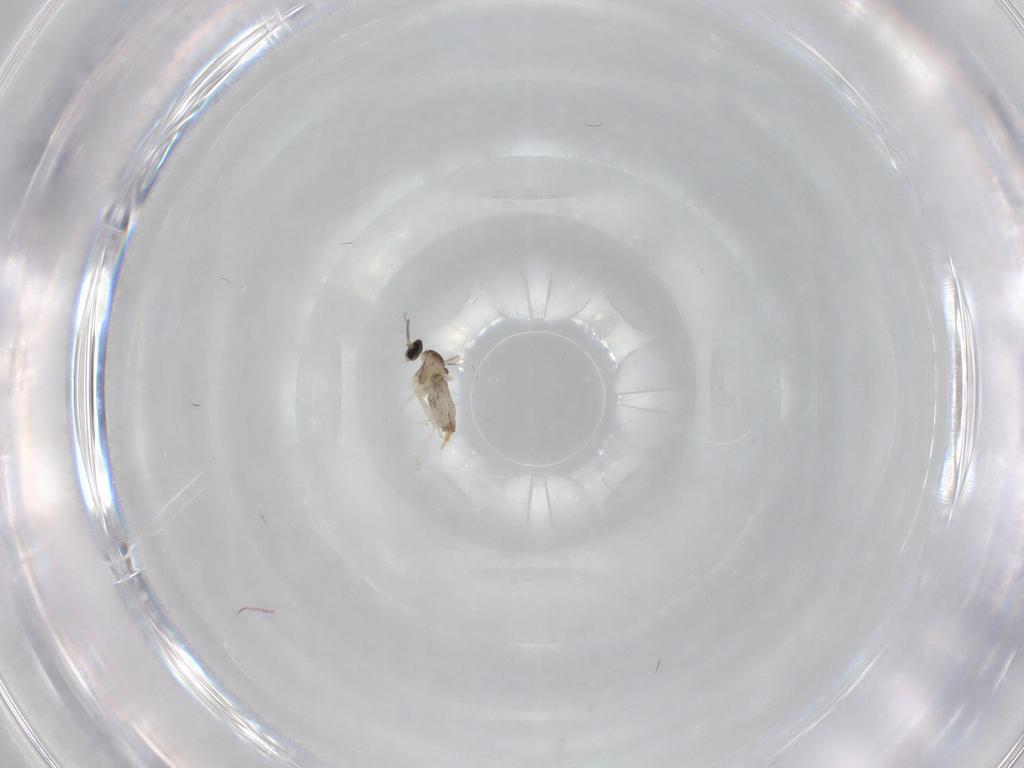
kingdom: Animalia
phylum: Arthropoda
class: Insecta
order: Diptera
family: Cecidomyiidae
